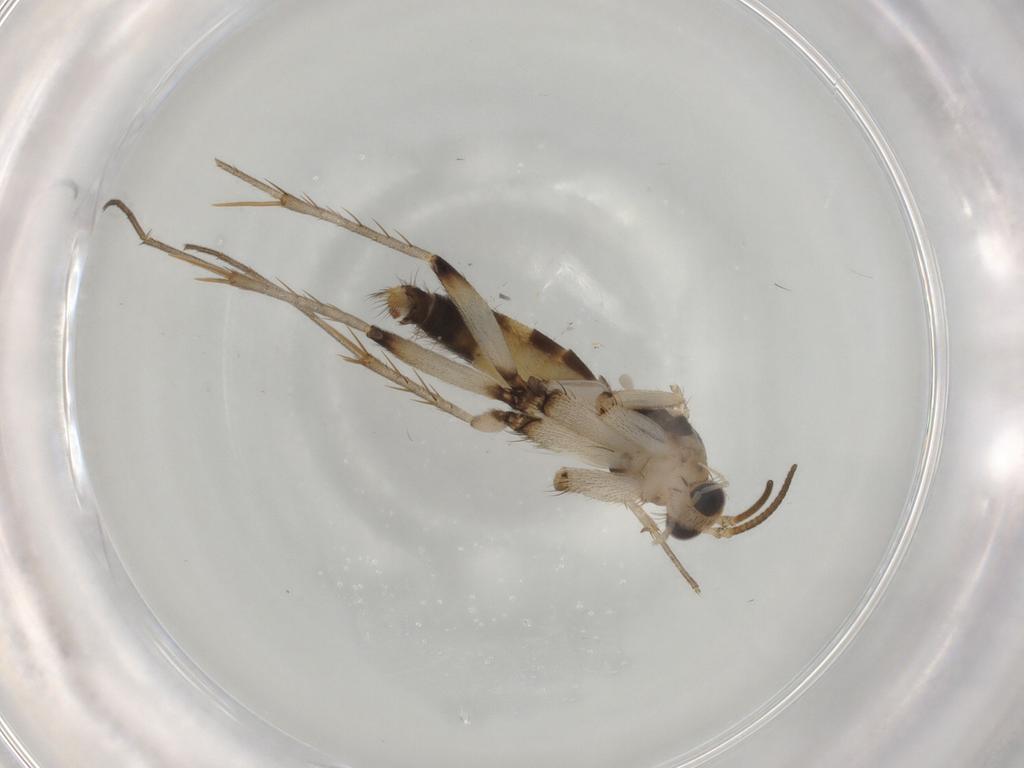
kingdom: Animalia
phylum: Arthropoda
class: Insecta
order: Diptera
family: Mycetophilidae
